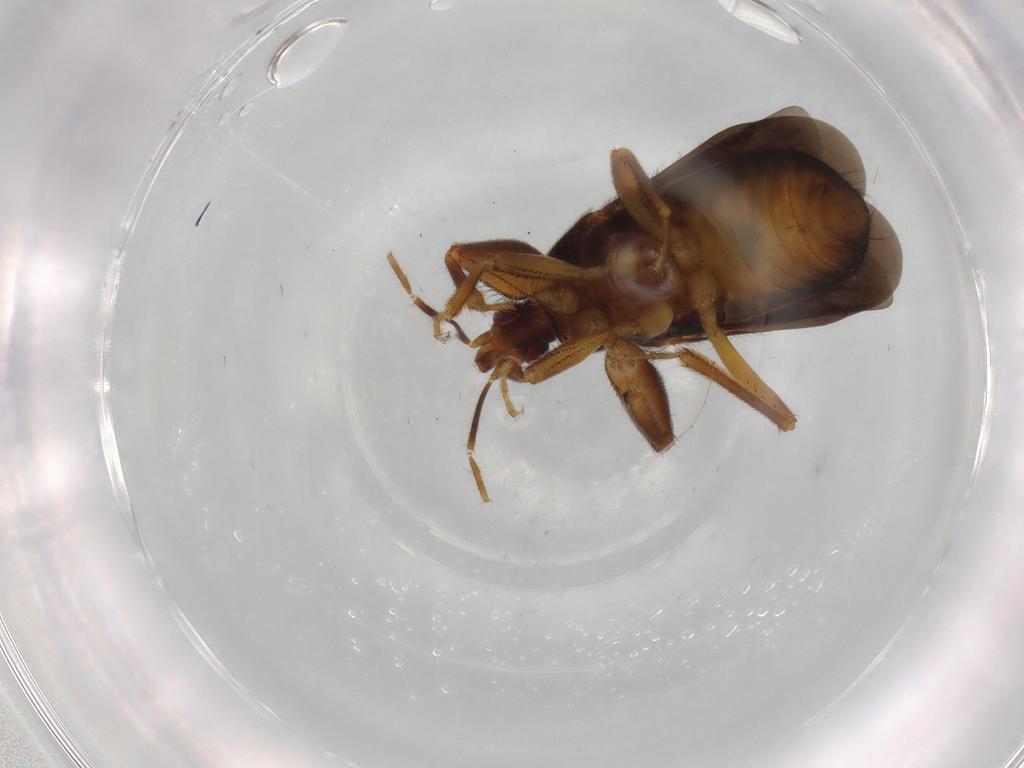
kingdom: Animalia
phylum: Arthropoda
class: Insecta
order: Hemiptera
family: Reduviidae
